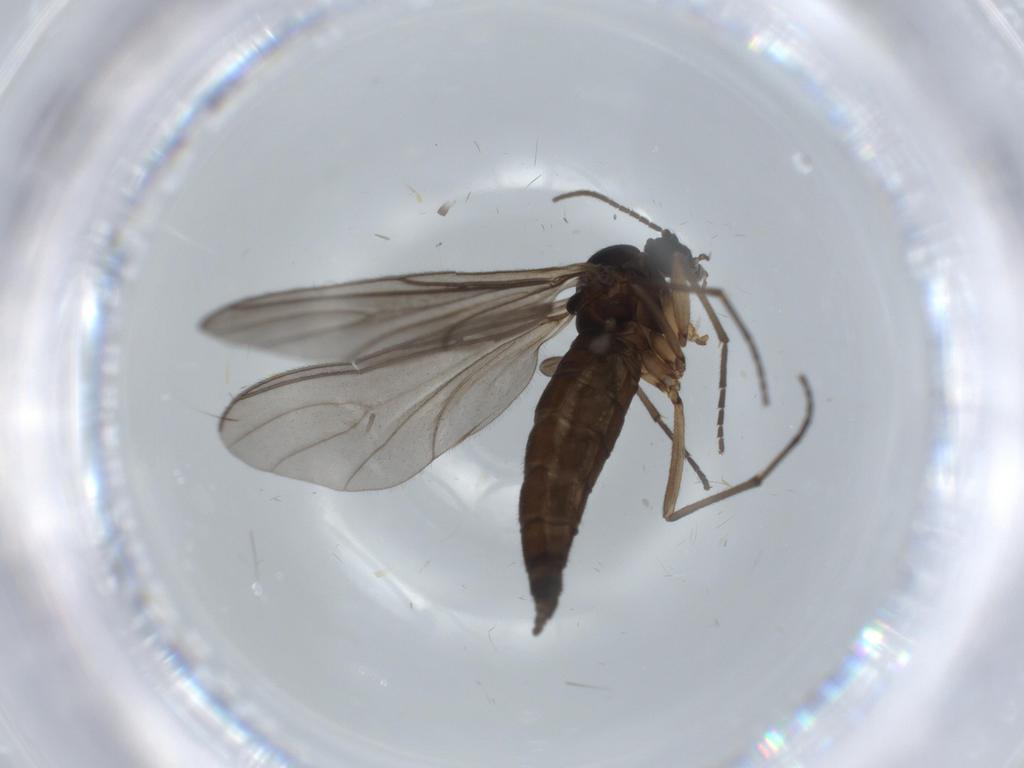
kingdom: Animalia
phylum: Arthropoda
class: Insecta
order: Diptera
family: Sciaridae
